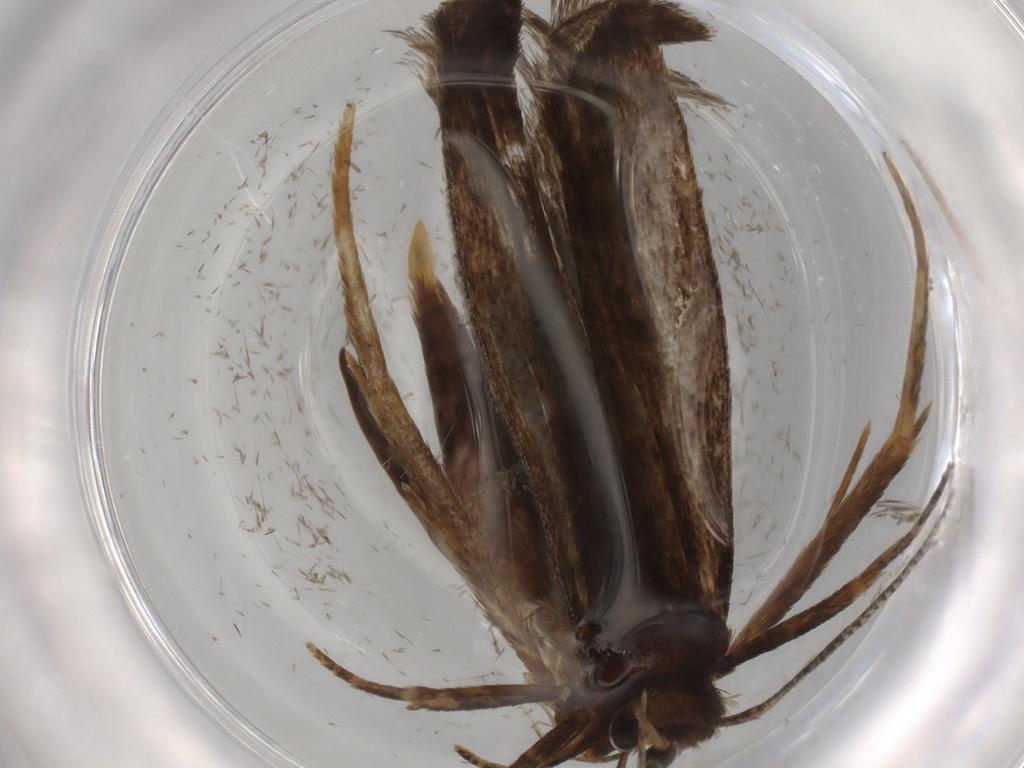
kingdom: Animalia
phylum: Arthropoda
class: Insecta
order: Lepidoptera
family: Autostichidae
